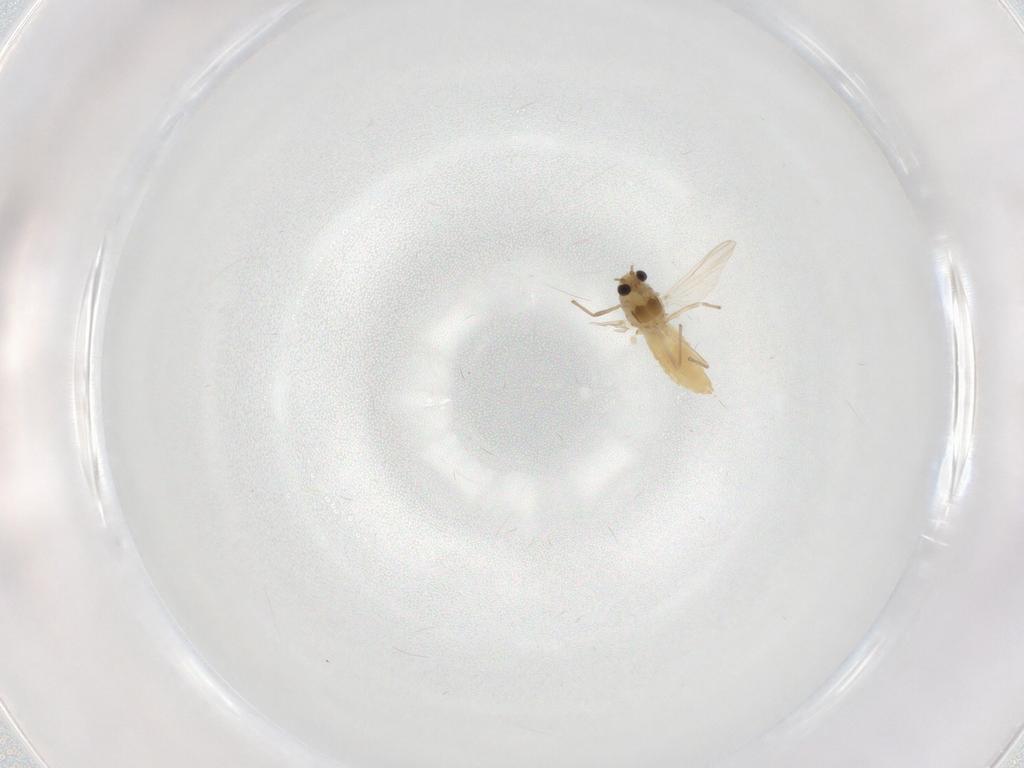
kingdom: Animalia
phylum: Arthropoda
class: Insecta
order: Diptera
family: Chironomidae
